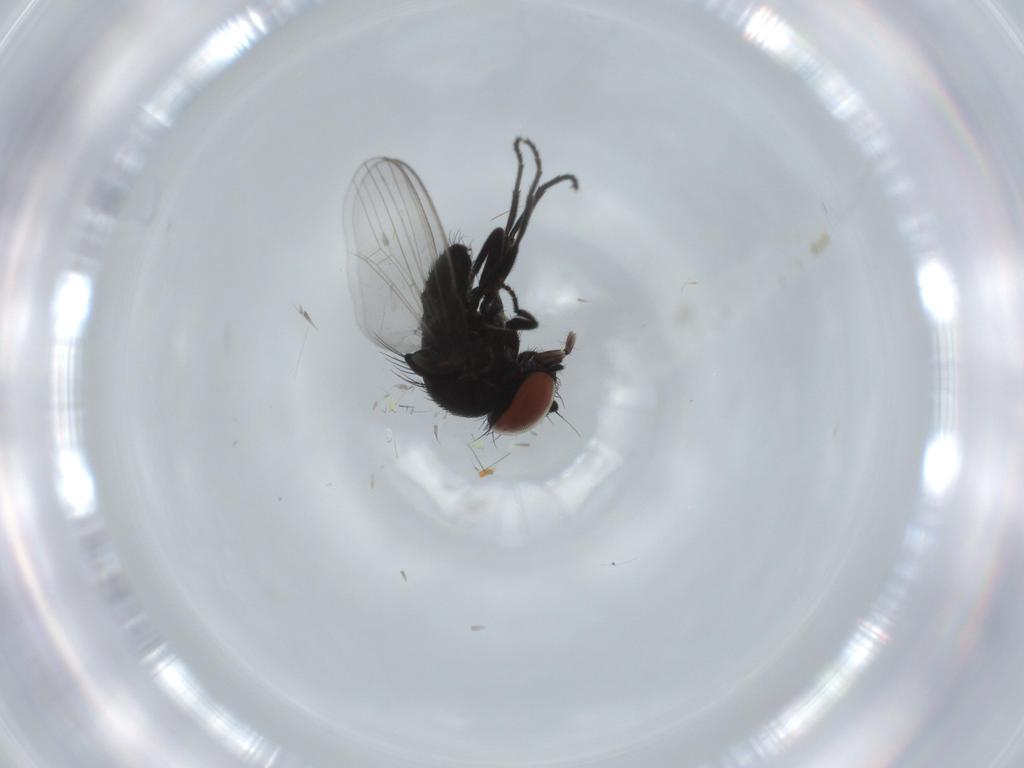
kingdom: Animalia
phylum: Arthropoda
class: Insecta
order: Diptera
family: Milichiidae
